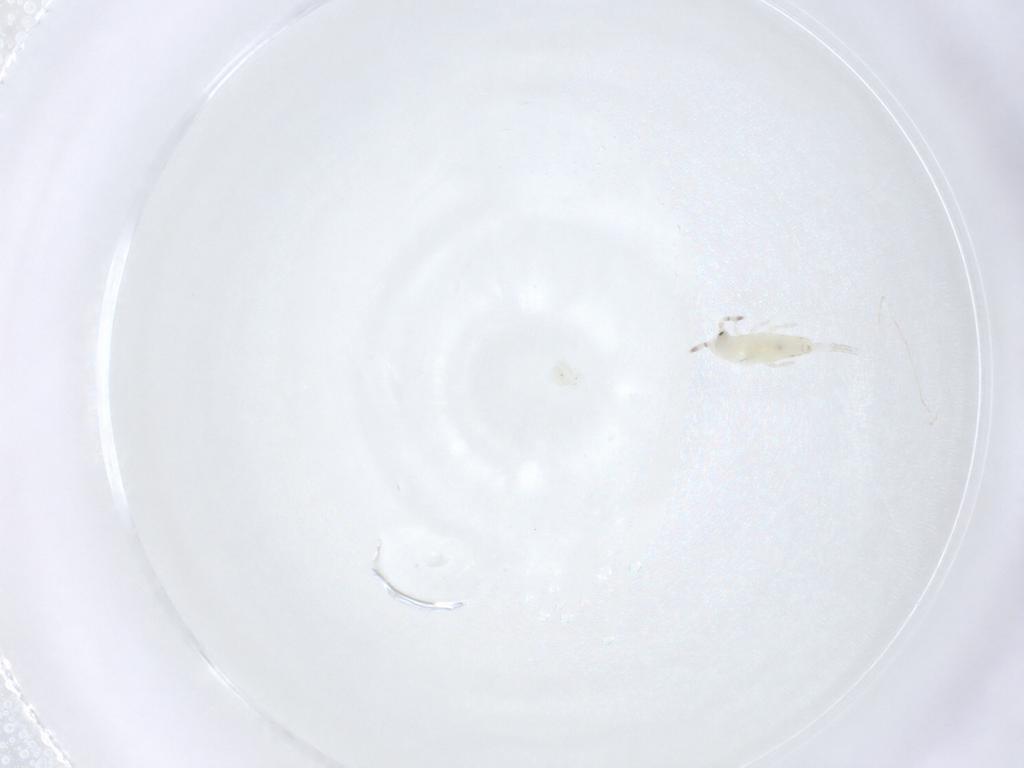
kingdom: Animalia
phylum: Arthropoda
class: Collembola
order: Entomobryomorpha
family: Entomobryidae
